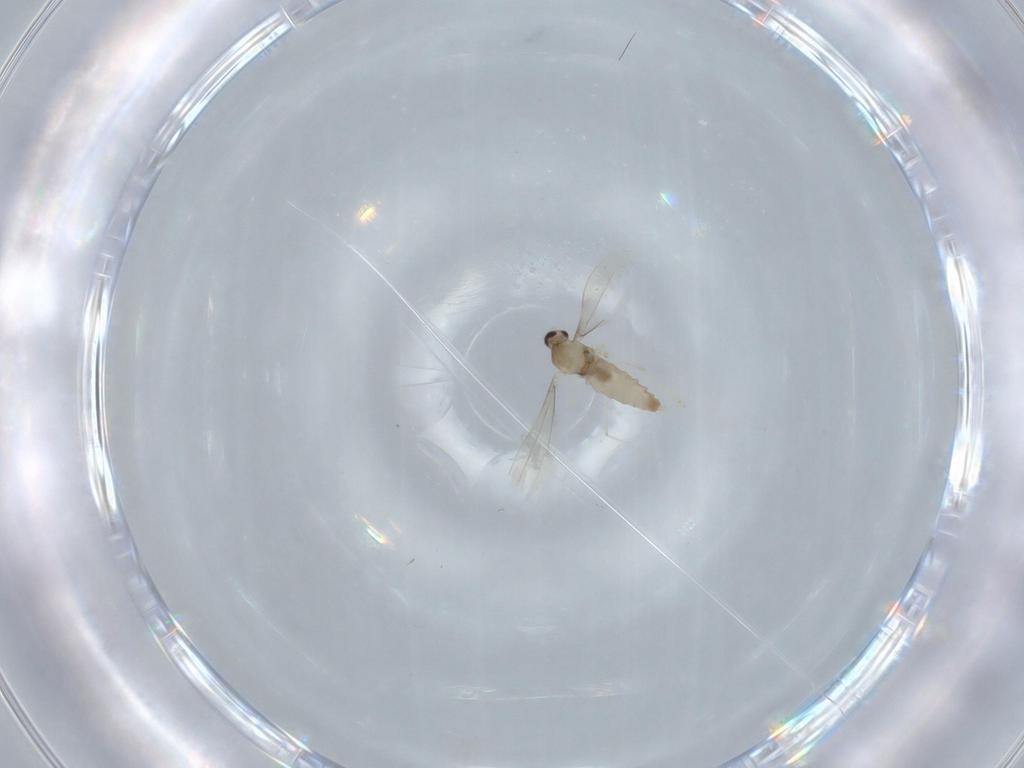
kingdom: Animalia
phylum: Arthropoda
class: Insecta
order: Diptera
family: Cecidomyiidae
